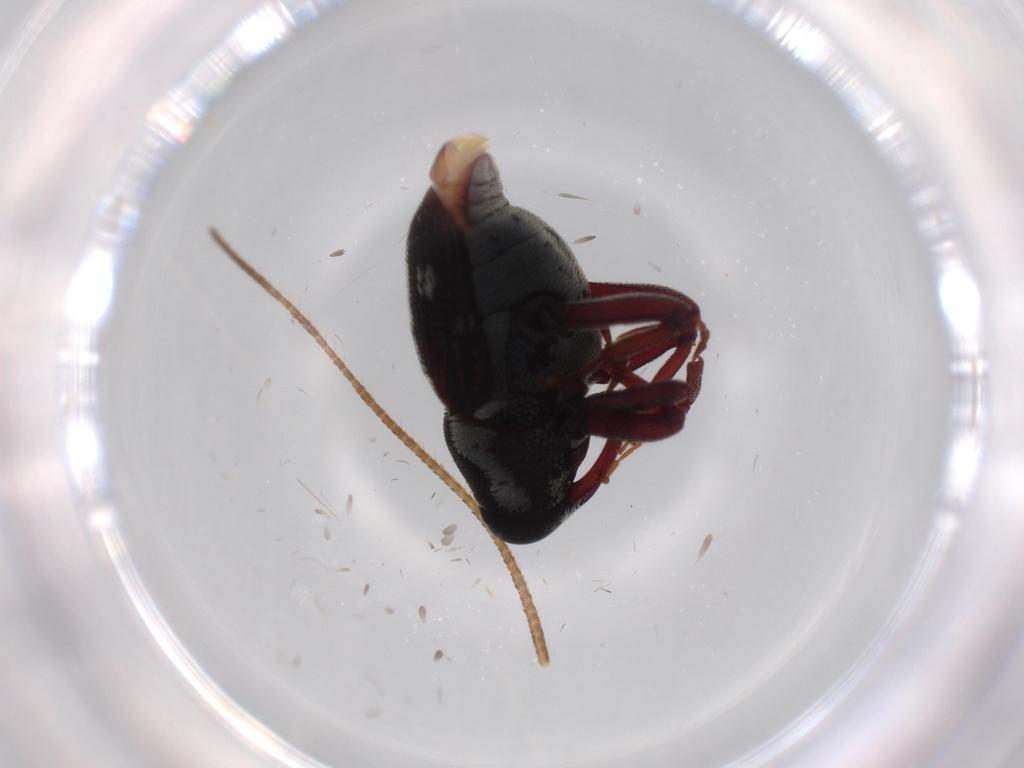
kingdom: Animalia
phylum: Arthropoda
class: Insecta
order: Coleoptera
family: Curculionidae
